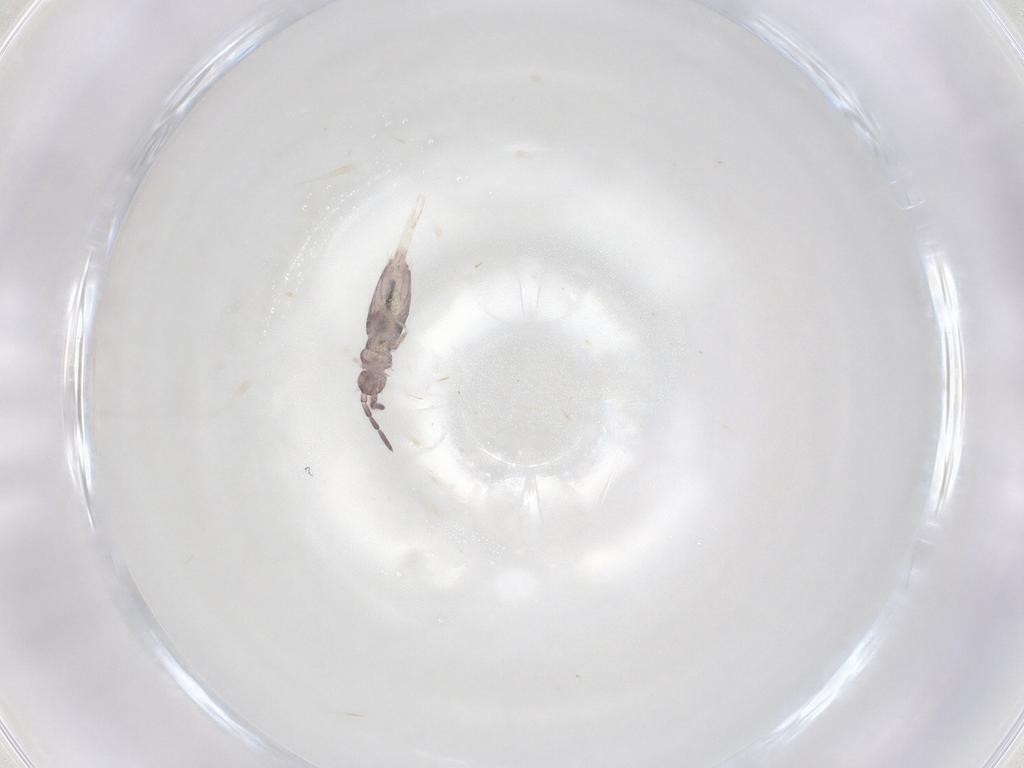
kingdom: Animalia
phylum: Arthropoda
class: Collembola
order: Poduromorpha
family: Hypogastruridae
